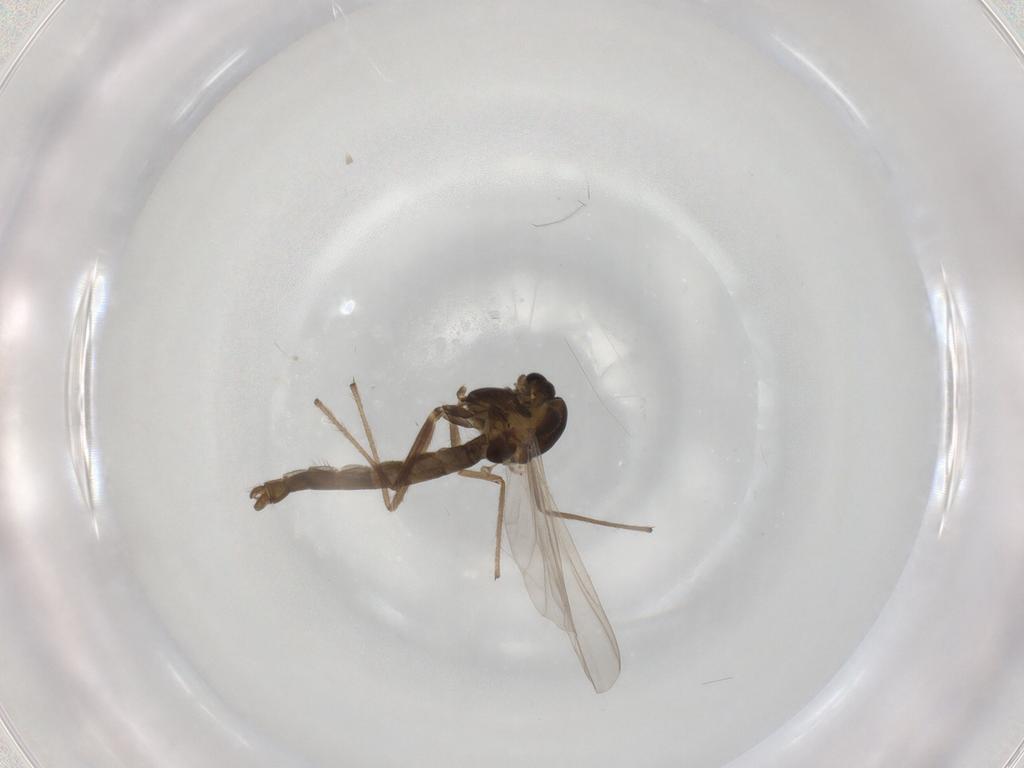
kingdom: Animalia
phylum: Arthropoda
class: Insecta
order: Diptera
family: Chironomidae
